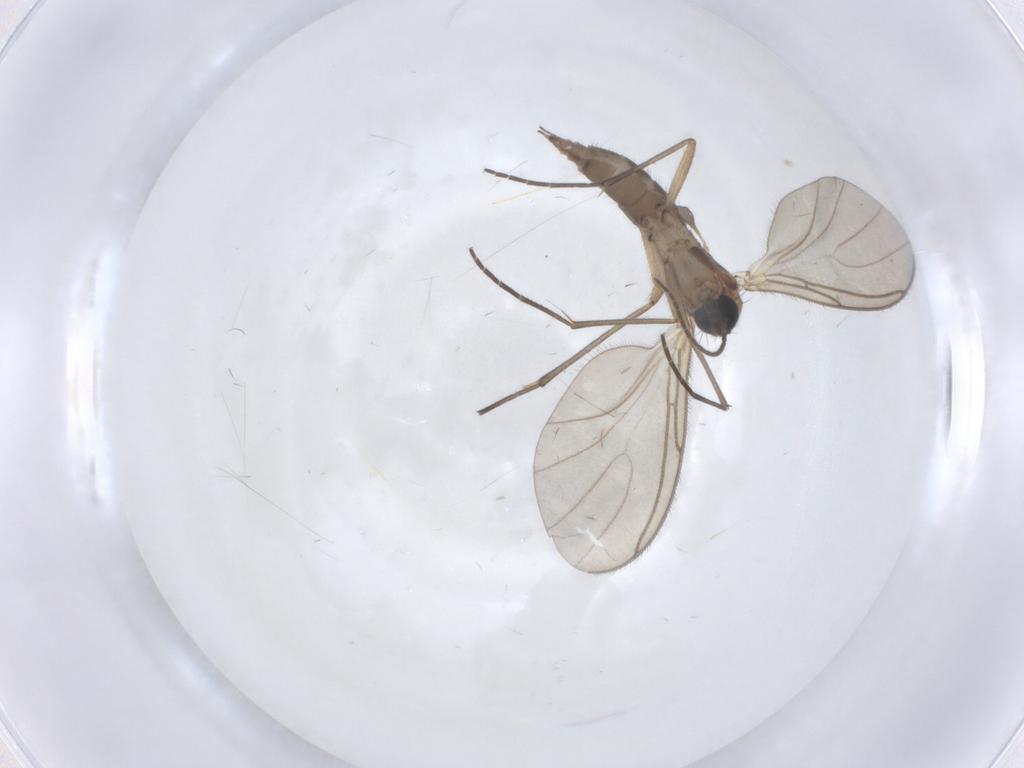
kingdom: Animalia
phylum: Arthropoda
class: Insecta
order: Diptera
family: Sciaridae
